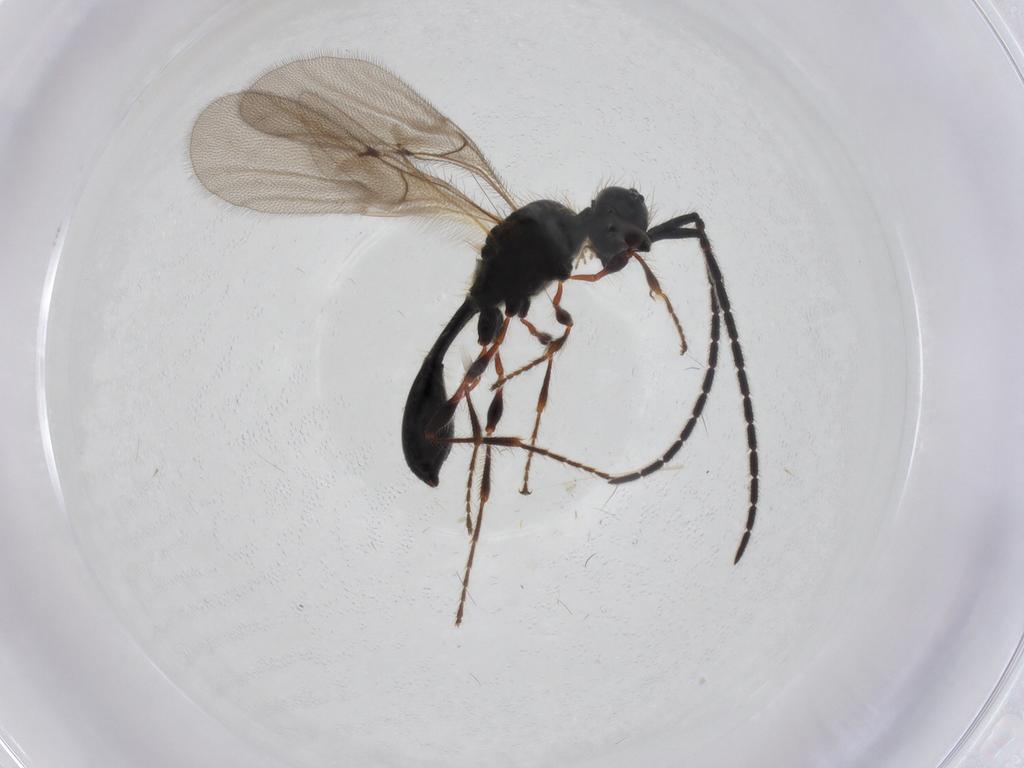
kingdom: Animalia
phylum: Arthropoda
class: Insecta
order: Hymenoptera
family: Diapriidae
